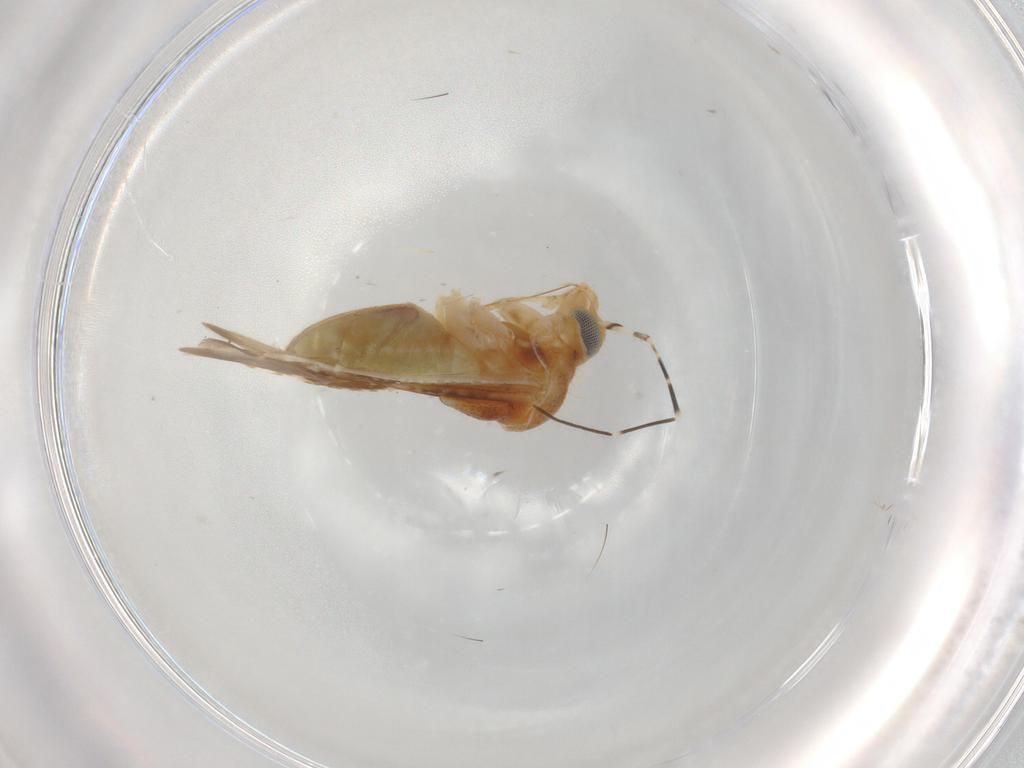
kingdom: Animalia
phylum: Arthropoda
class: Insecta
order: Hemiptera
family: Miridae
